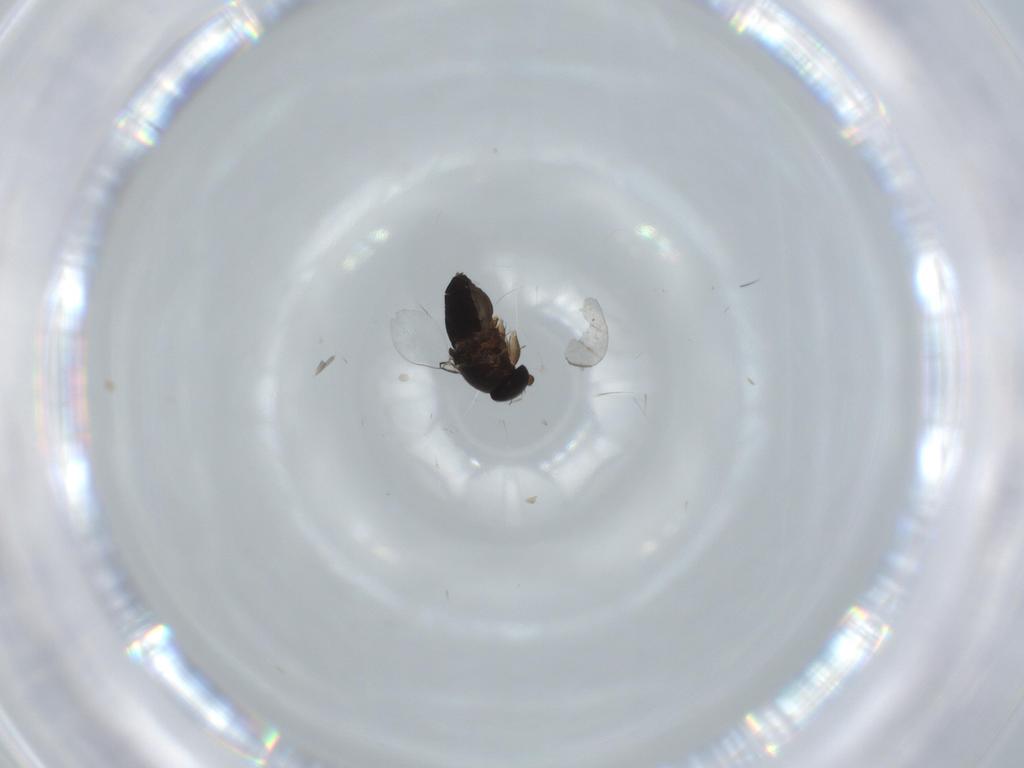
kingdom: Animalia
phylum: Arthropoda
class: Insecta
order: Diptera
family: Phoridae
